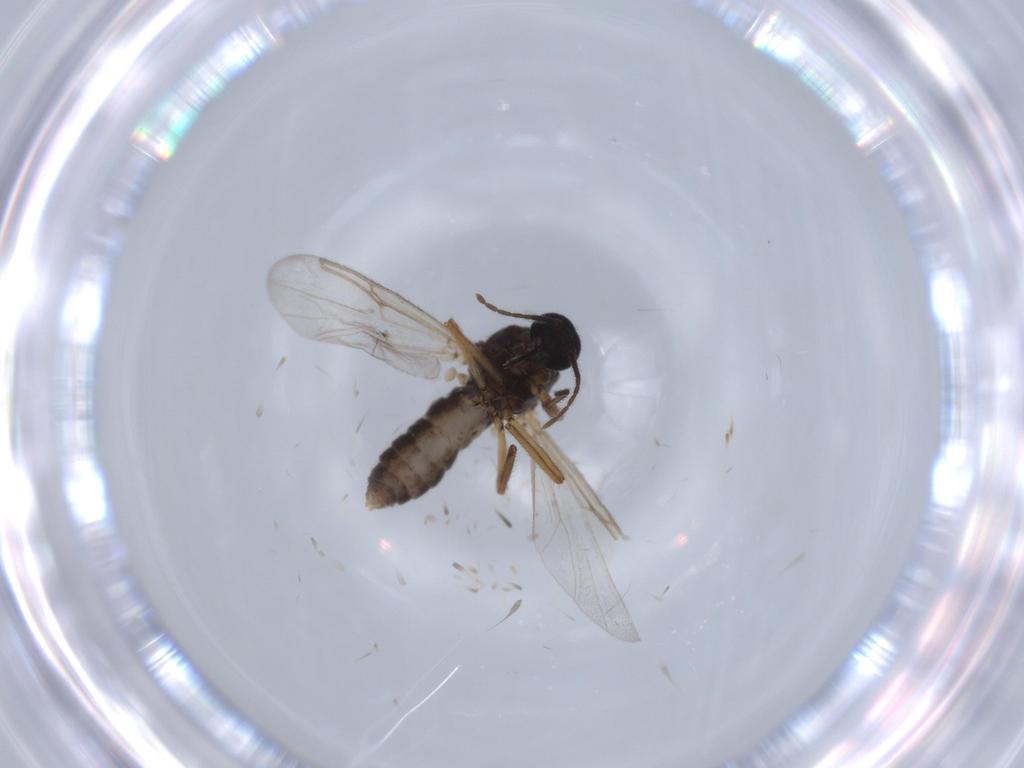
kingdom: Animalia
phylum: Arthropoda
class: Insecta
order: Diptera
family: Ceratopogonidae
